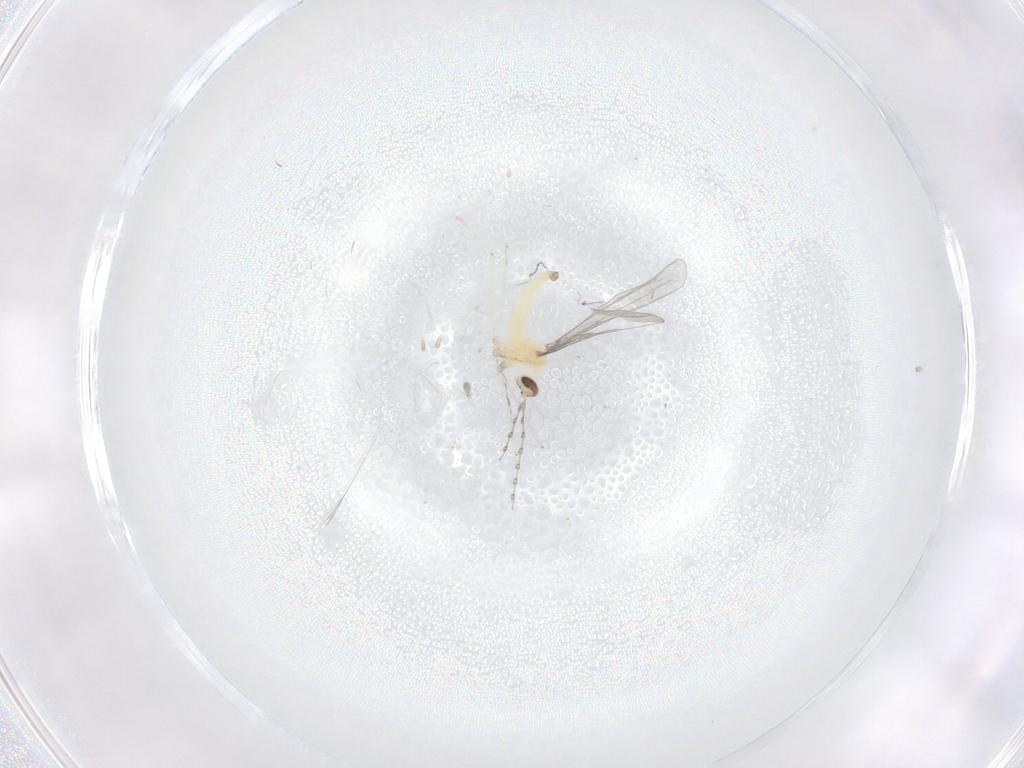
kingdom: Animalia
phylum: Arthropoda
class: Insecta
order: Diptera
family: Cecidomyiidae
